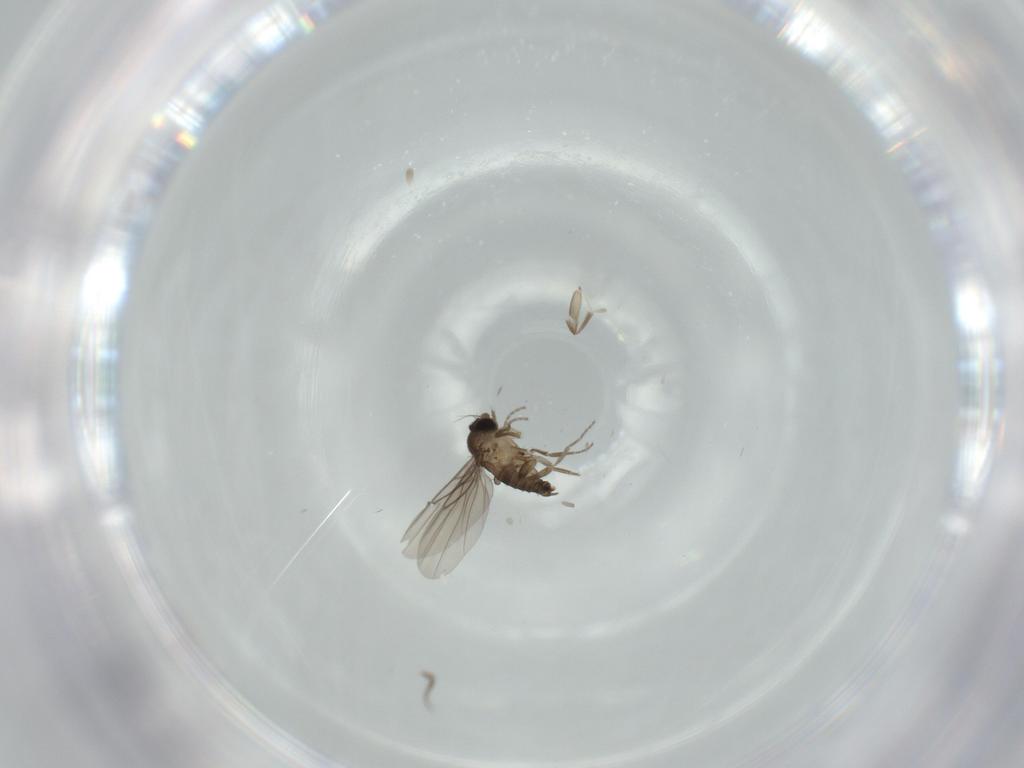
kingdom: Animalia
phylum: Arthropoda
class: Insecta
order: Diptera
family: Phoridae
